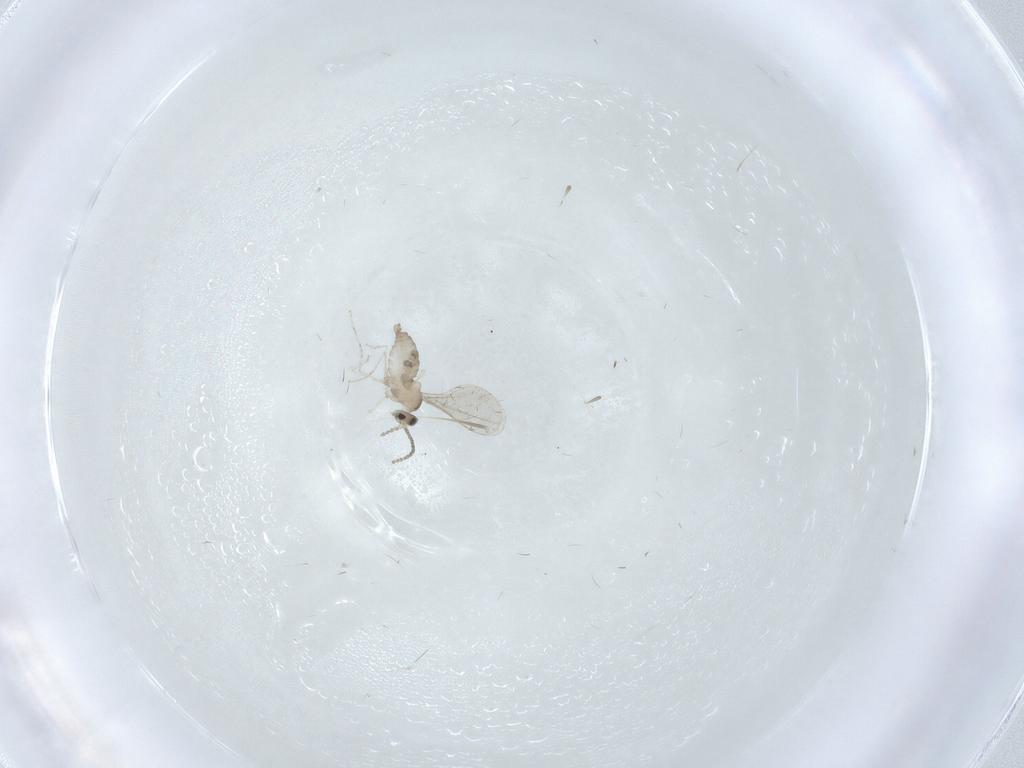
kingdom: Animalia
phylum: Arthropoda
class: Insecta
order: Diptera
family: Cecidomyiidae
